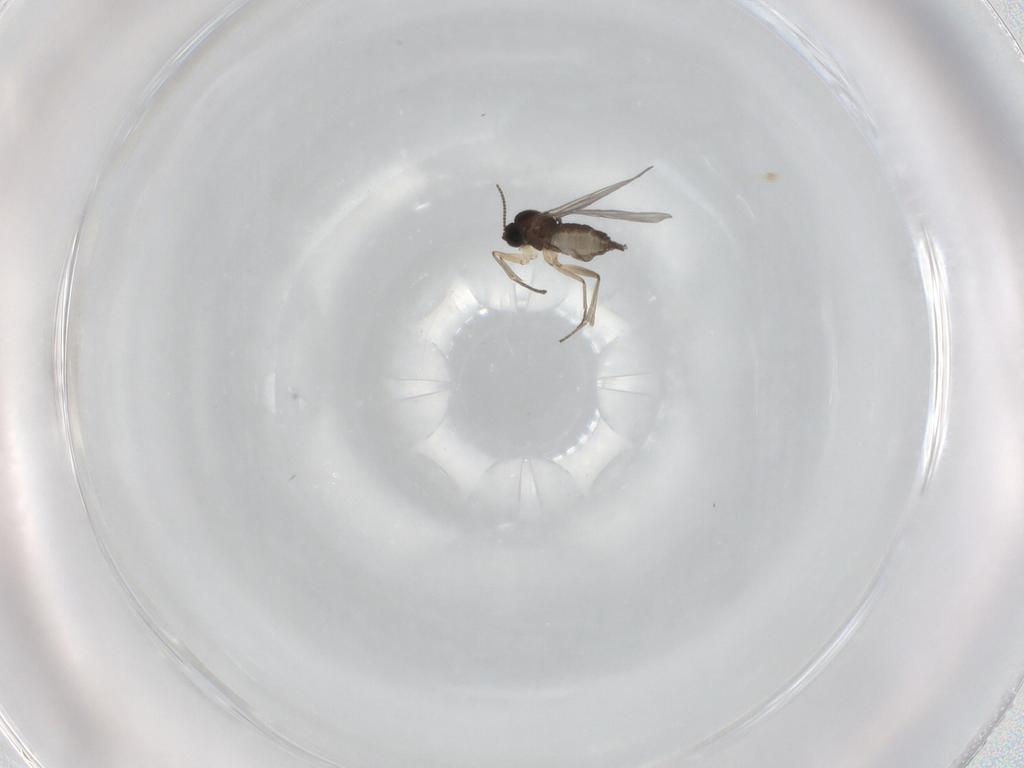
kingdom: Animalia
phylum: Arthropoda
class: Insecta
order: Diptera
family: Sciaridae
